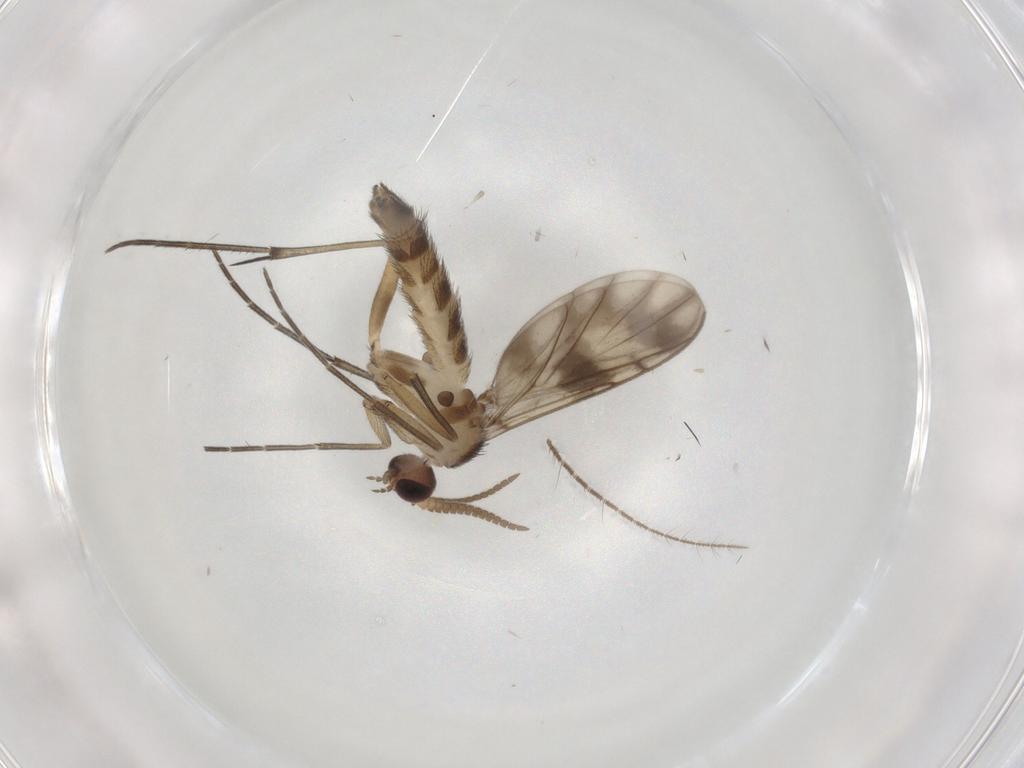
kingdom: Animalia
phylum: Arthropoda
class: Insecta
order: Diptera
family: Keroplatidae
